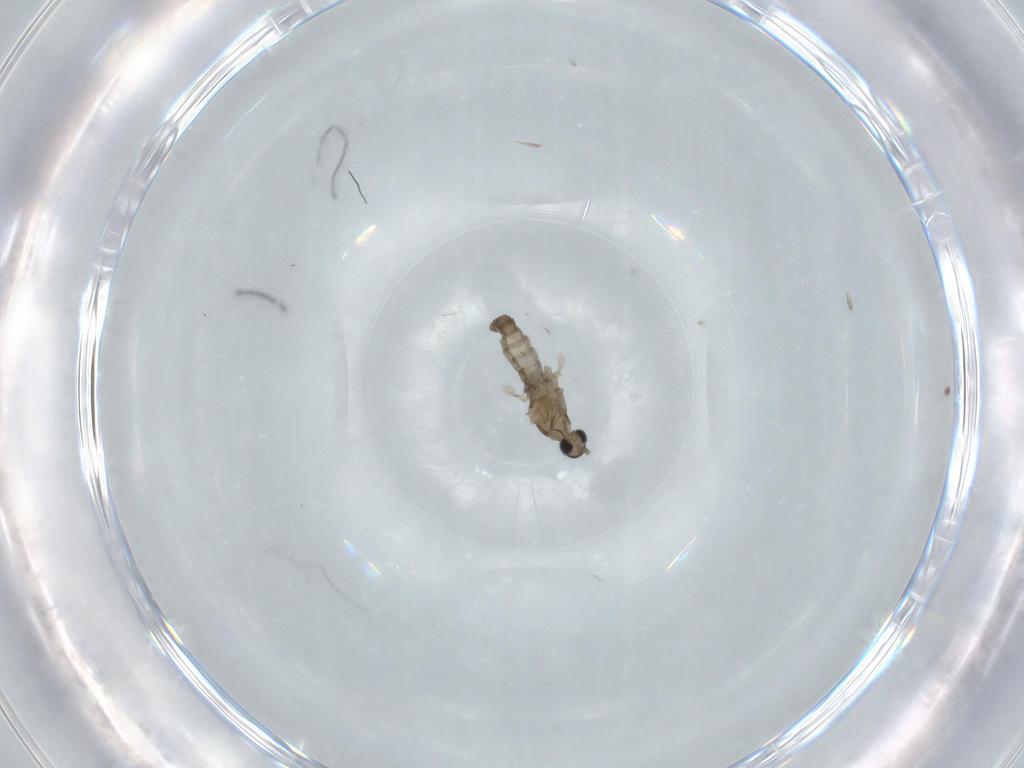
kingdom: Animalia
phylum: Arthropoda
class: Insecta
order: Diptera
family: Cecidomyiidae
